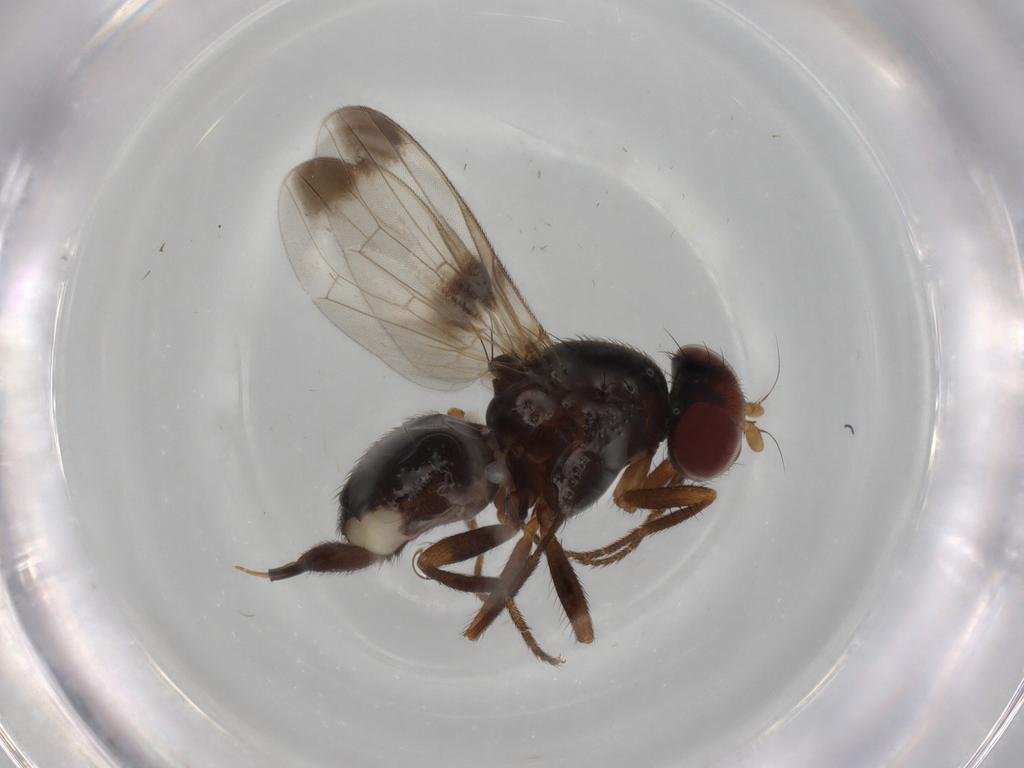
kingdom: Animalia
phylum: Arthropoda
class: Insecta
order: Diptera
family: Ulidiidae
